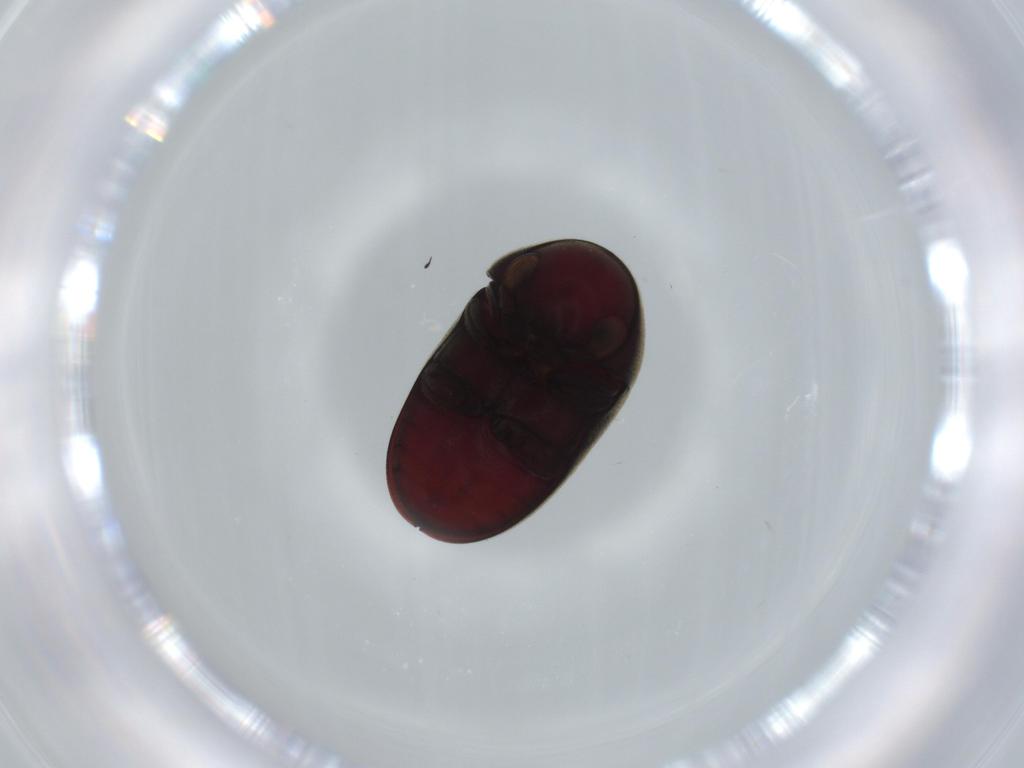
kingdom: Animalia
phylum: Arthropoda
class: Insecta
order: Coleoptera
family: Ptinidae
